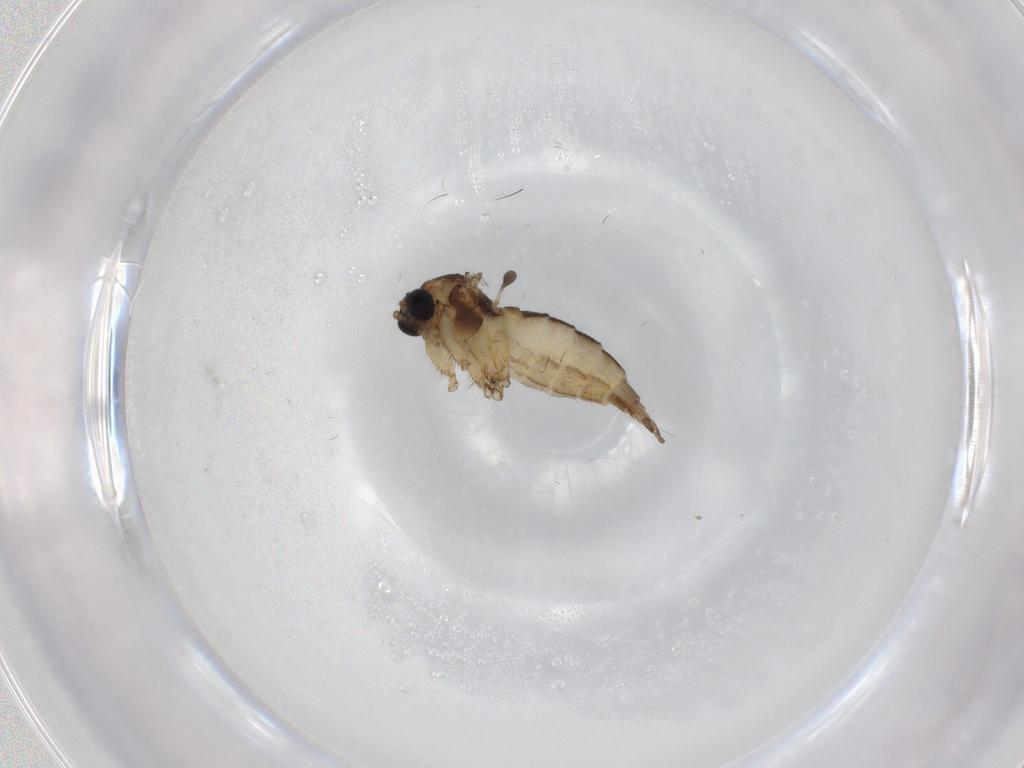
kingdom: Animalia
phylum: Arthropoda
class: Insecta
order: Diptera
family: Sciaridae
